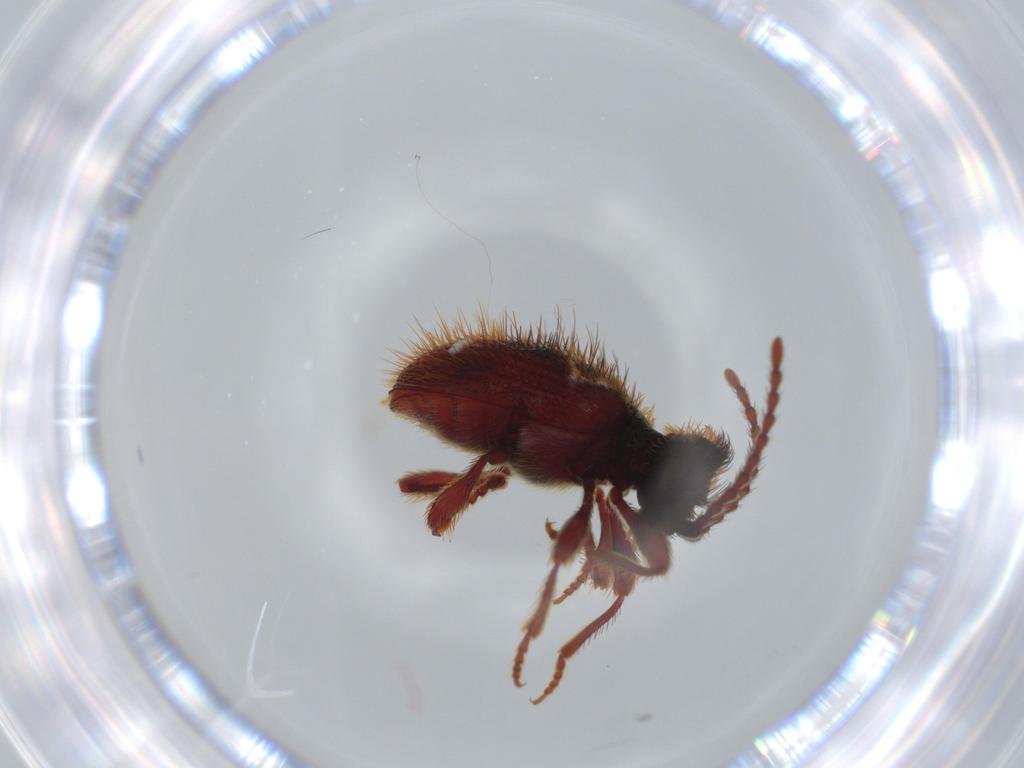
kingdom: Animalia
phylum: Arthropoda
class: Insecta
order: Coleoptera
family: Ptinidae
